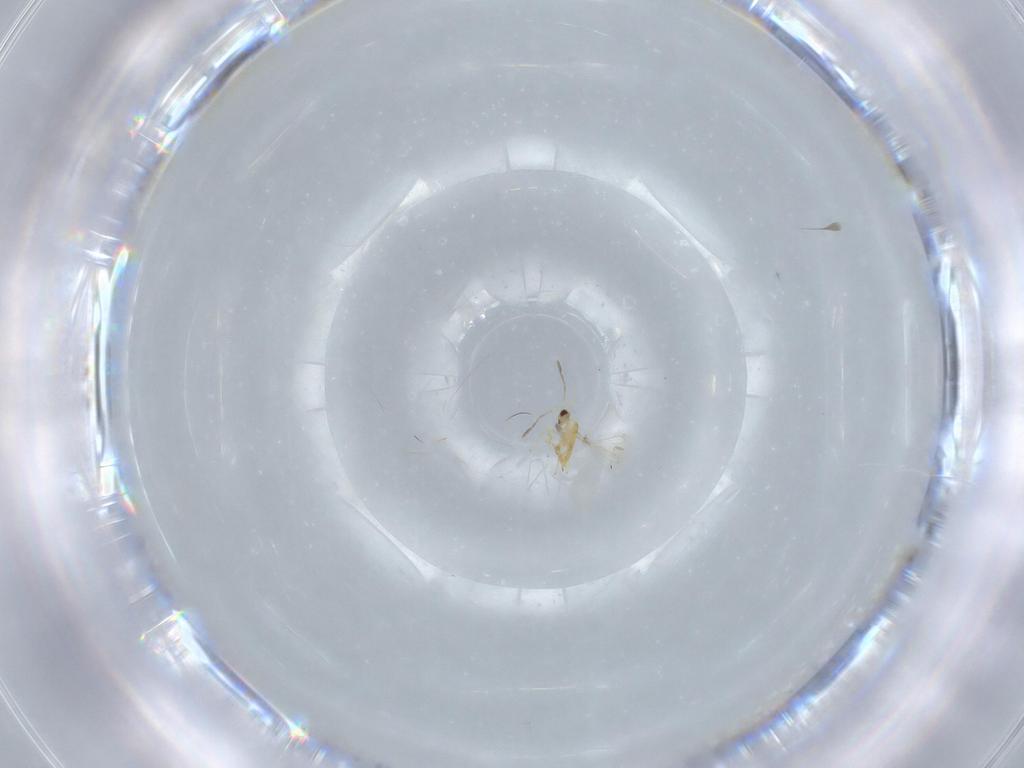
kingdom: Animalia
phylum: Arthropoda
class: Insecta
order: Hymenoptera
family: Mymaridae
